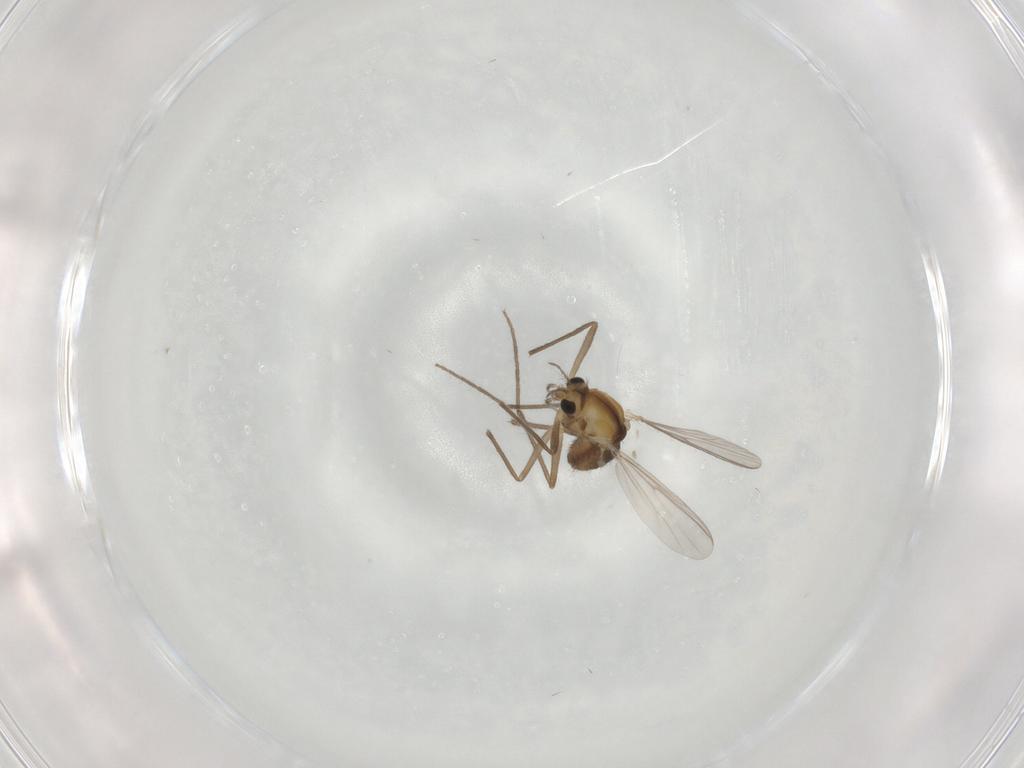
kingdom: Animalia
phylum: Arthropoda
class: Insecta
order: Diptera
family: Chironomidae
